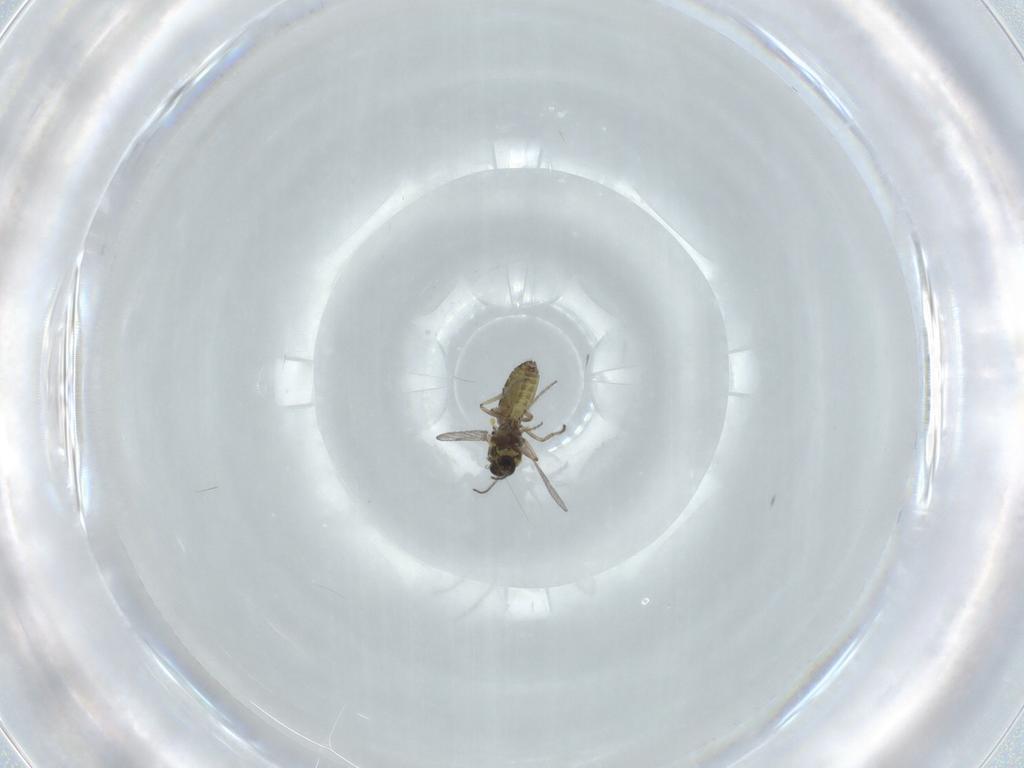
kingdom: Animalia
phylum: Arthropoda
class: Insecta
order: Diptera
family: Ceratopogonidae
